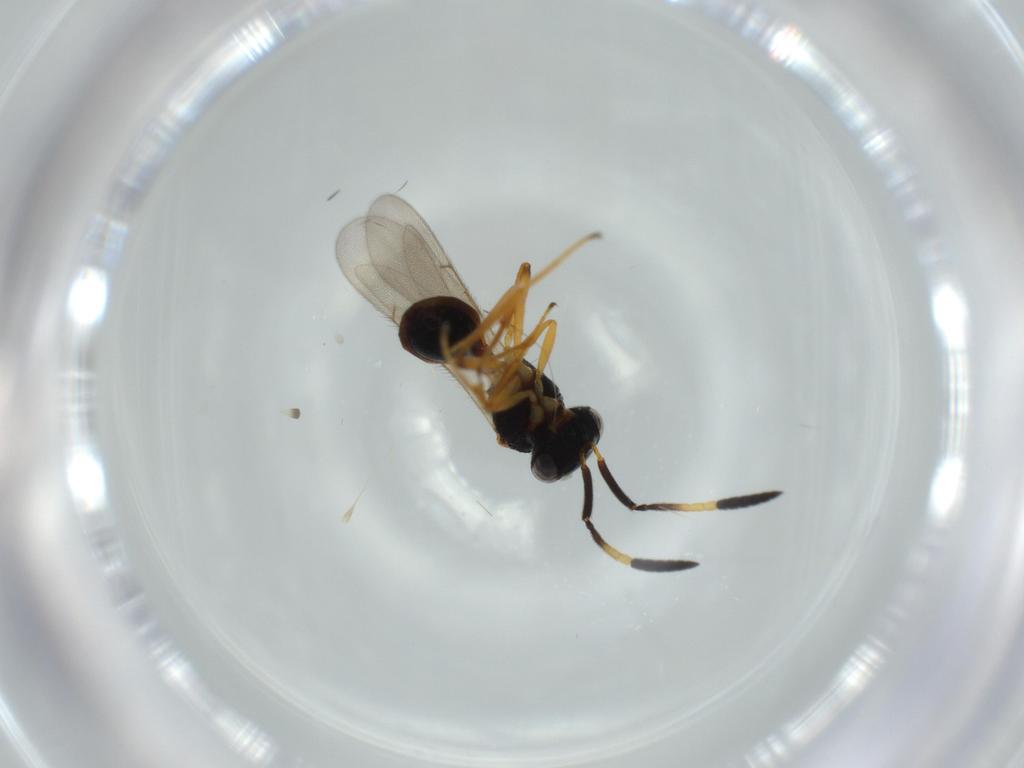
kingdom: Animalia
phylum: Arthropoda
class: Insecta
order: Hymenoptera
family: Scelionidae
